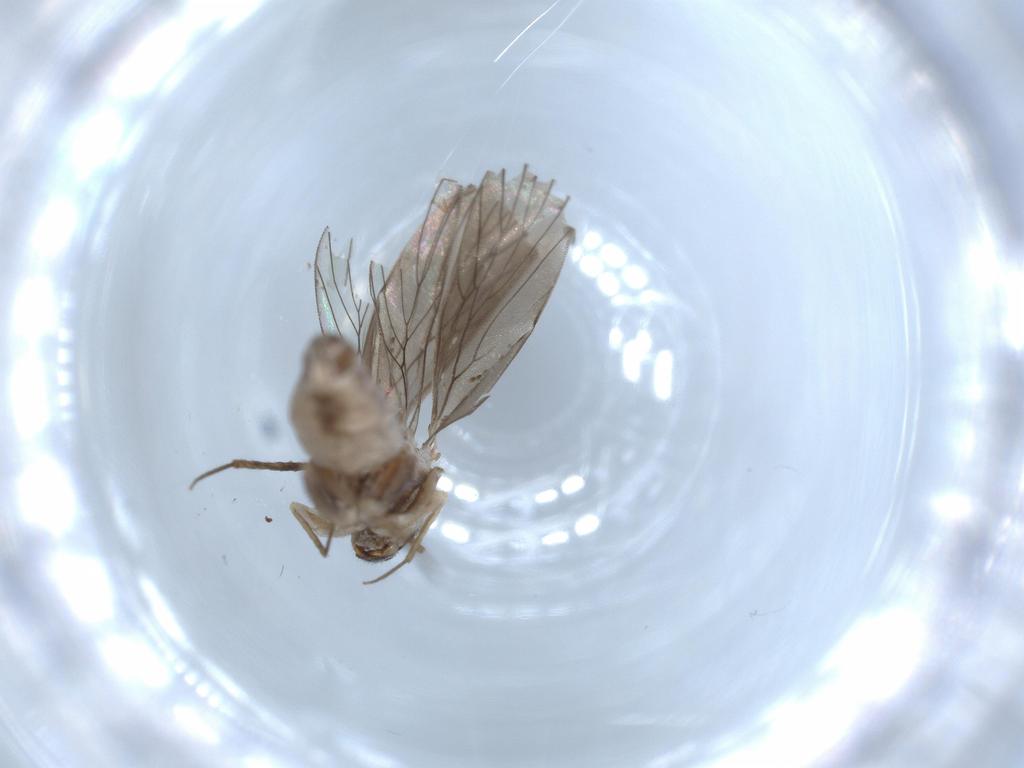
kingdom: Animalia
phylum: Arthropoda
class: Insecta
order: Psocodea
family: Lepidopsocidae
